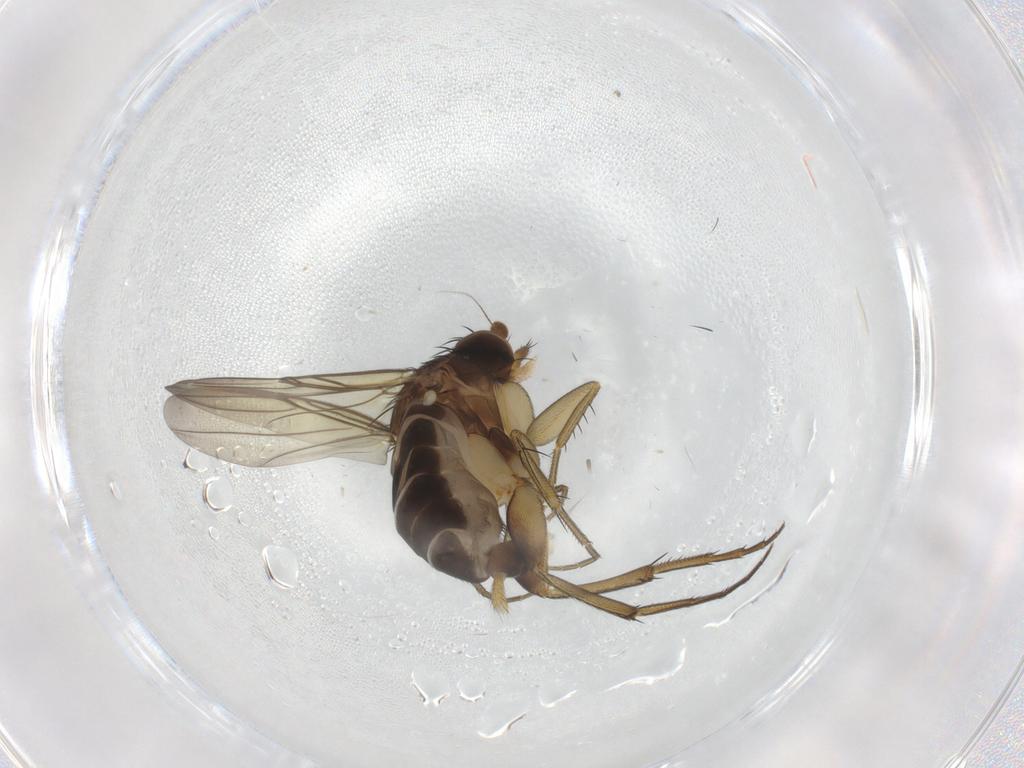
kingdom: Animalia
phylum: Arthropoda
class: Insecta
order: Diptera
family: Phoridae
